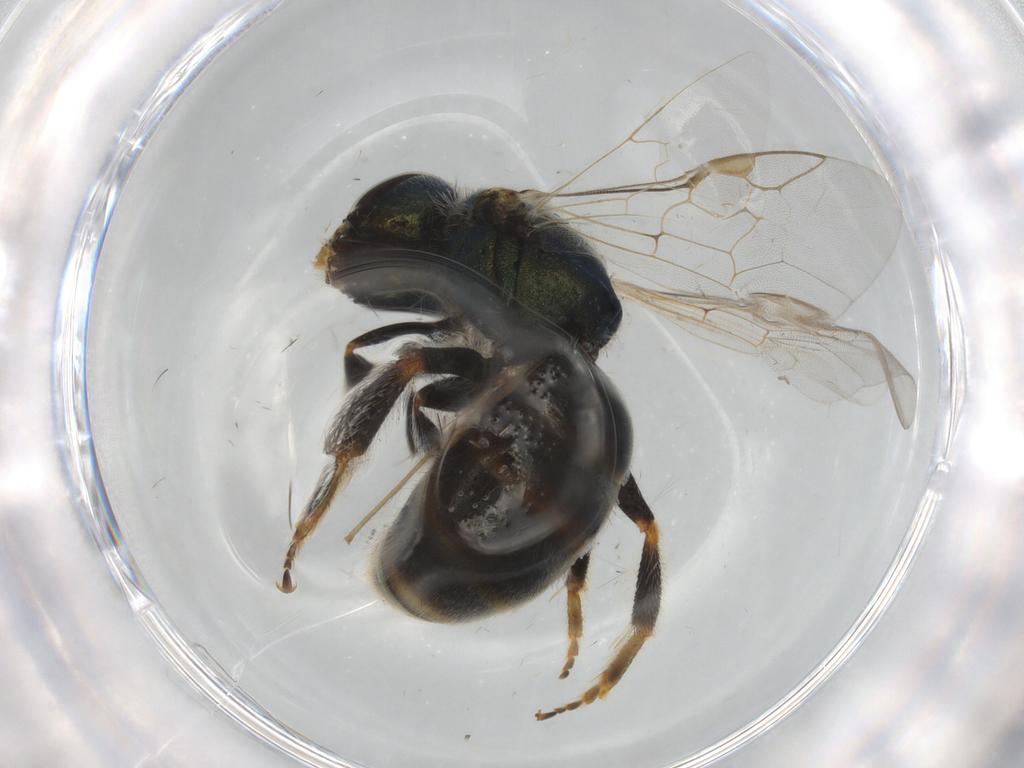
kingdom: Animalia
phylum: Arthropoda
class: Insecta
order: Hymenoptera
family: Halictidae
